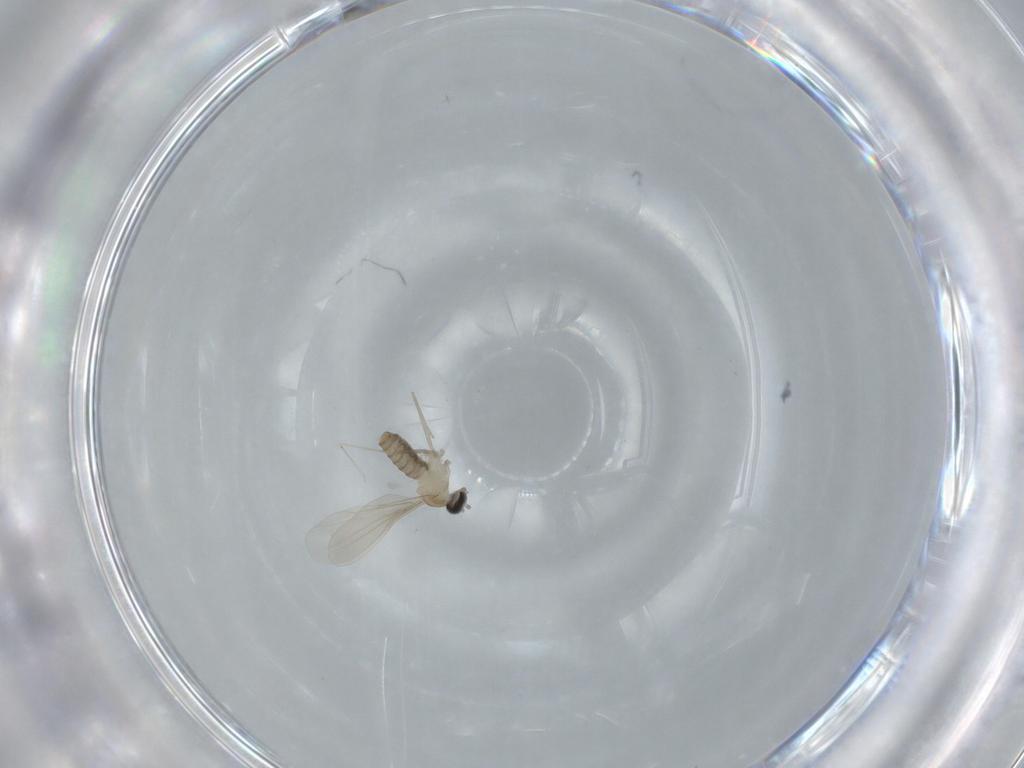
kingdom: Animalia
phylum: Arthropoda
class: Insecta
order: Diptera
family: Cecidomyiidae
